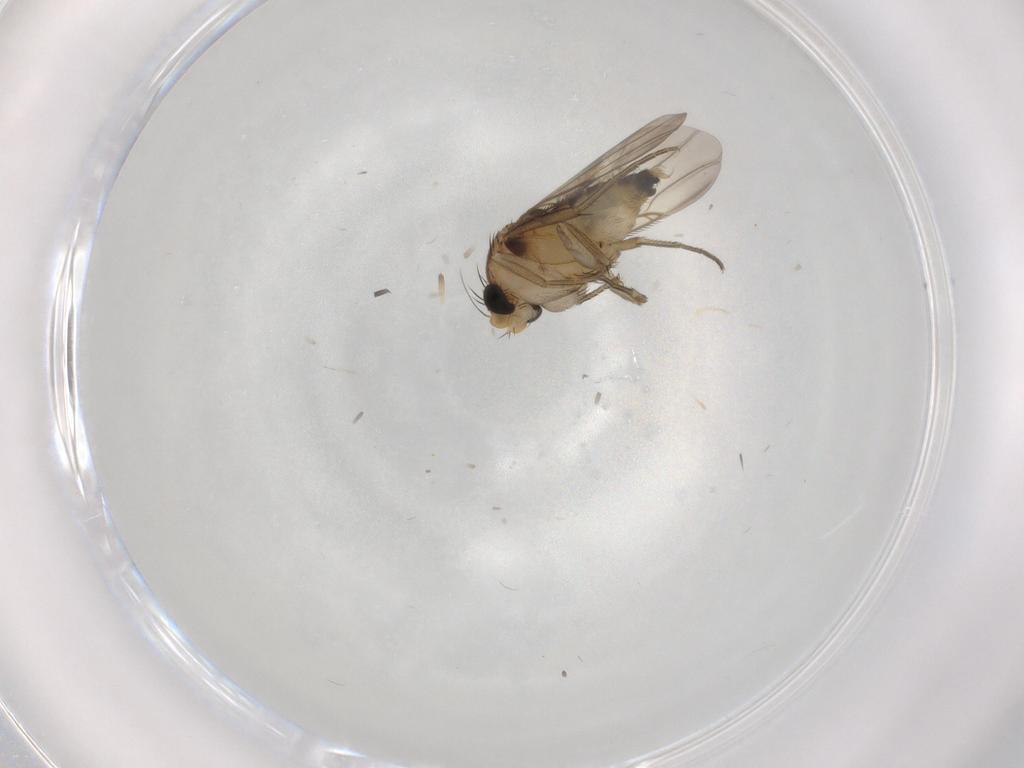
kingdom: Animalia
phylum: Arthropoda
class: Insecta
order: Diptera
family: Phoridae
